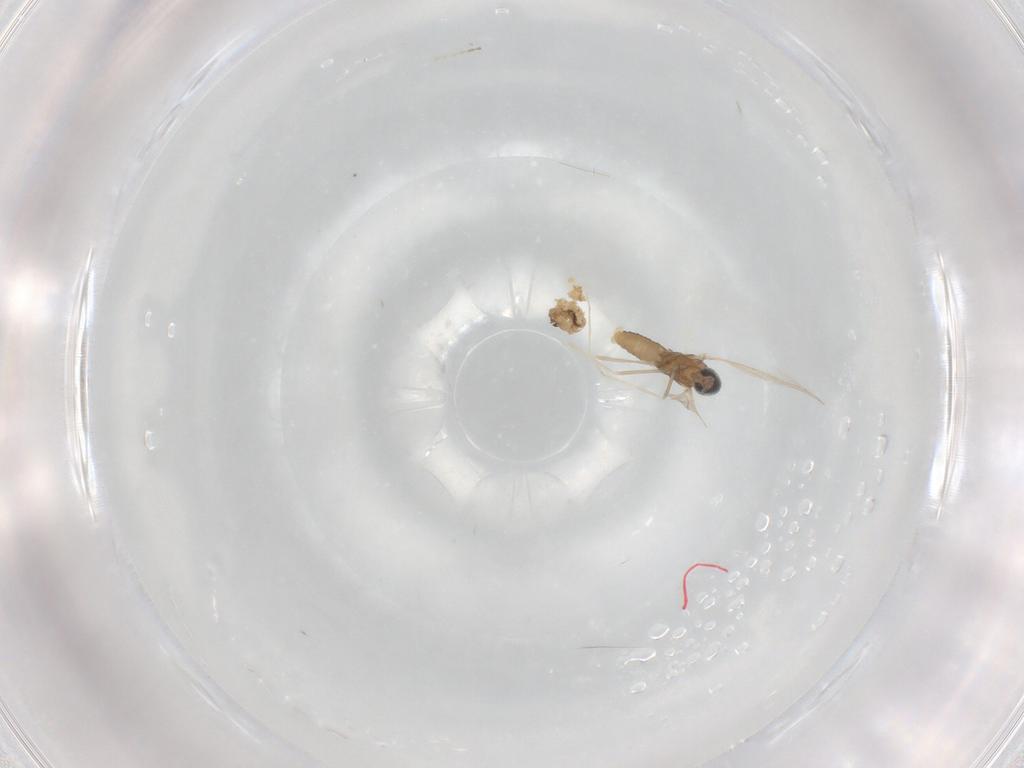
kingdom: Animalia
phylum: Arthropoda
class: Insecta
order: Diptera
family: Cecidomyiidae
